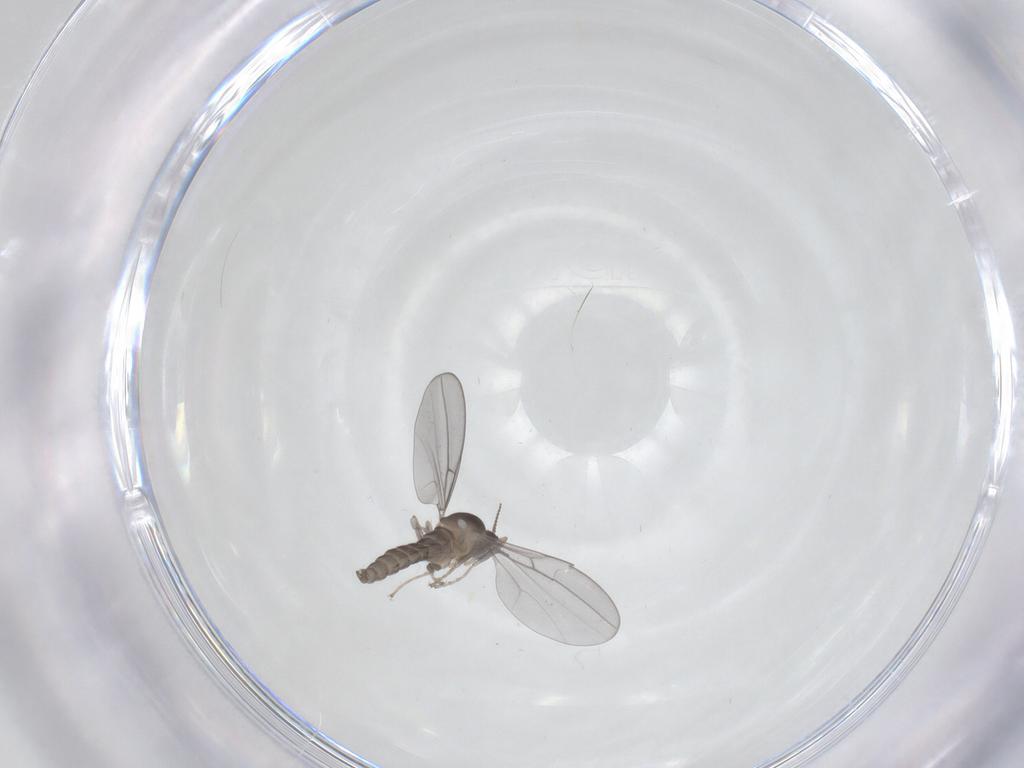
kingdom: Animalia
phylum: Arthropoda
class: Insecta
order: Diptera
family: Cecidomyiidae
